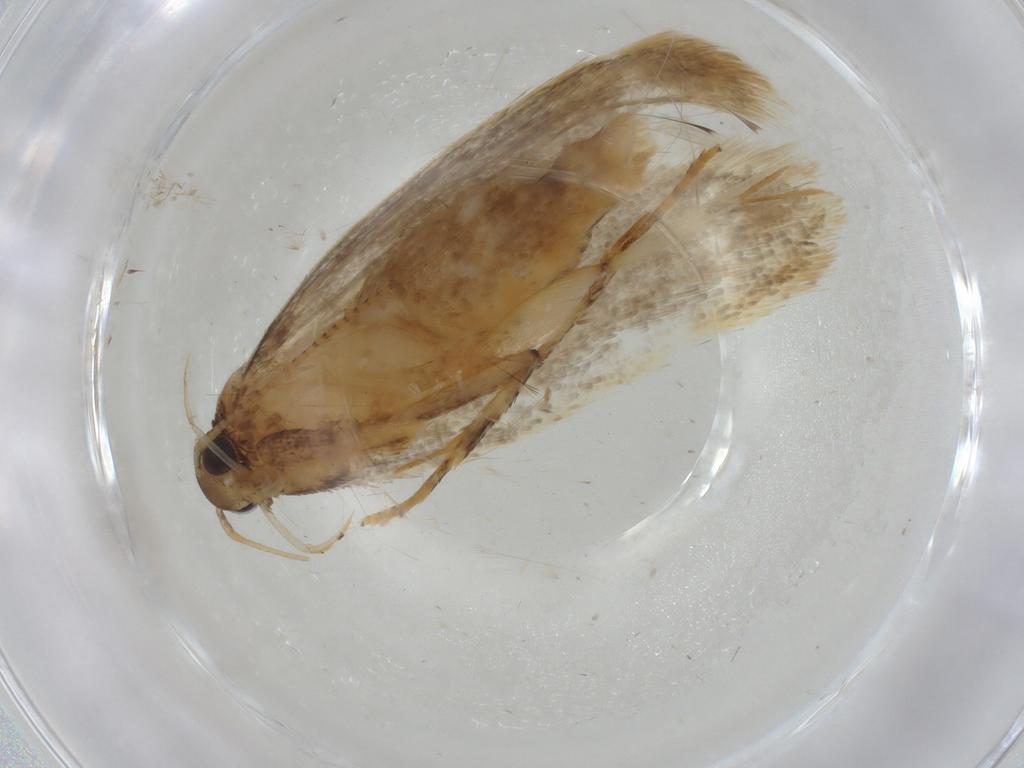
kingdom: Animalia
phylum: Arthropoda
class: Insecta
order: Lepidoptera
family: Gelechiidae
